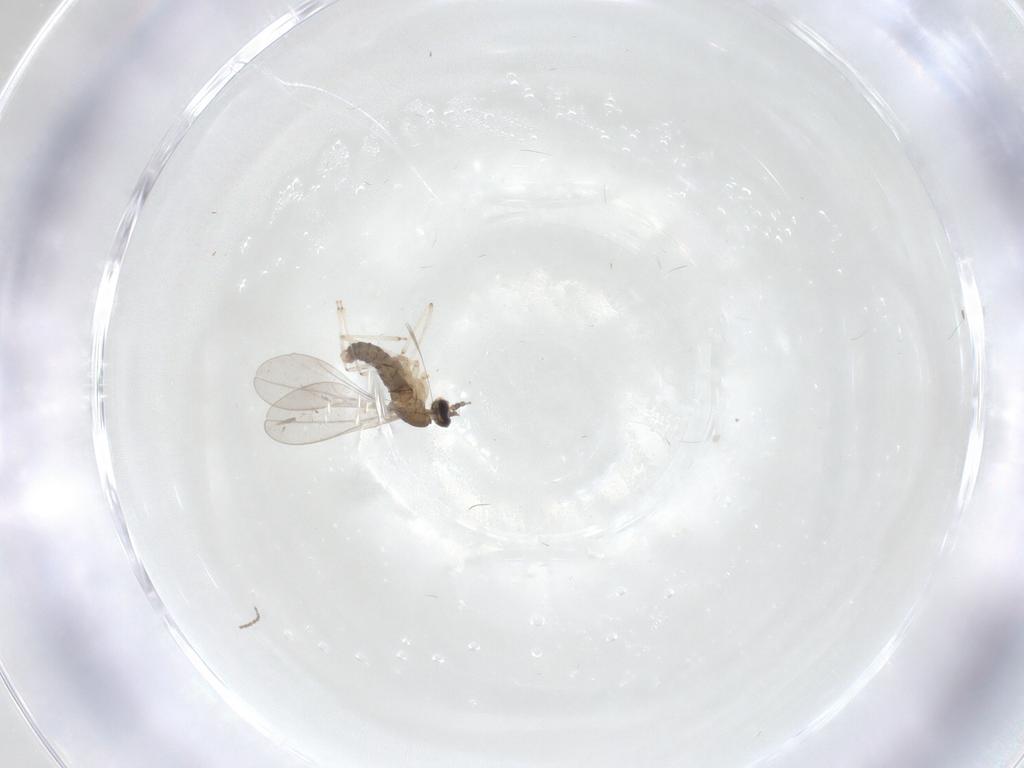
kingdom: Animalia
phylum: Arthropoda
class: Insecta
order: Diptera
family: Cecidomyiidae
